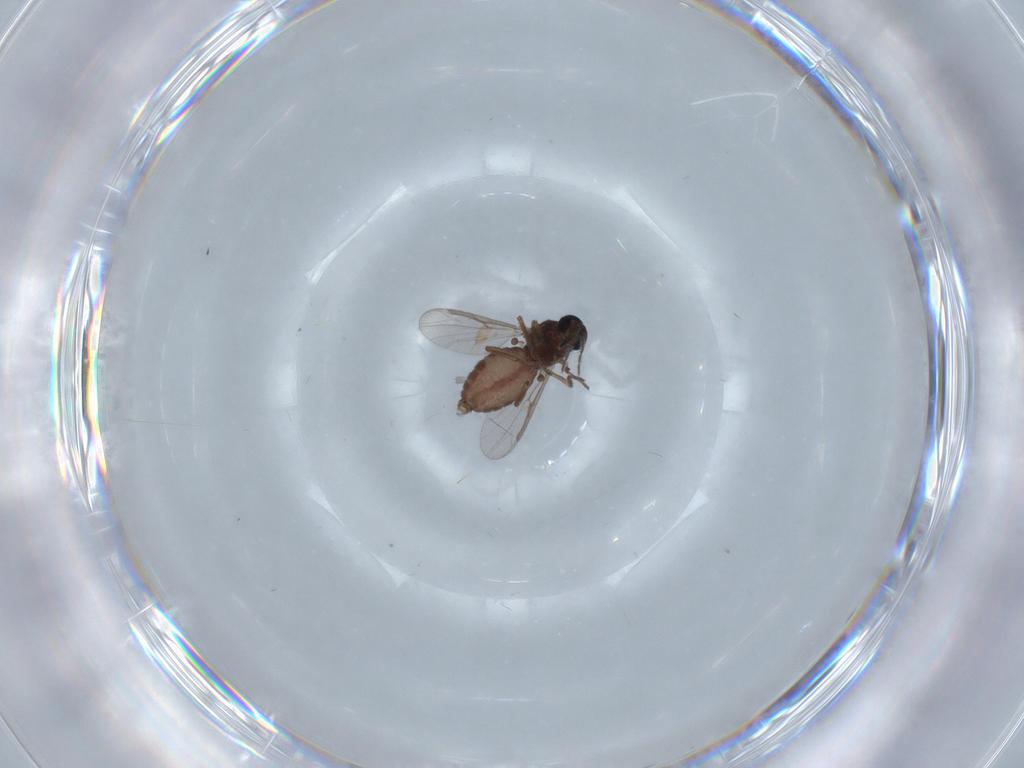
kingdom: Animalia
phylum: Arthropoda
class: Insecta
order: Diptera
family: Ceratopogonidae
